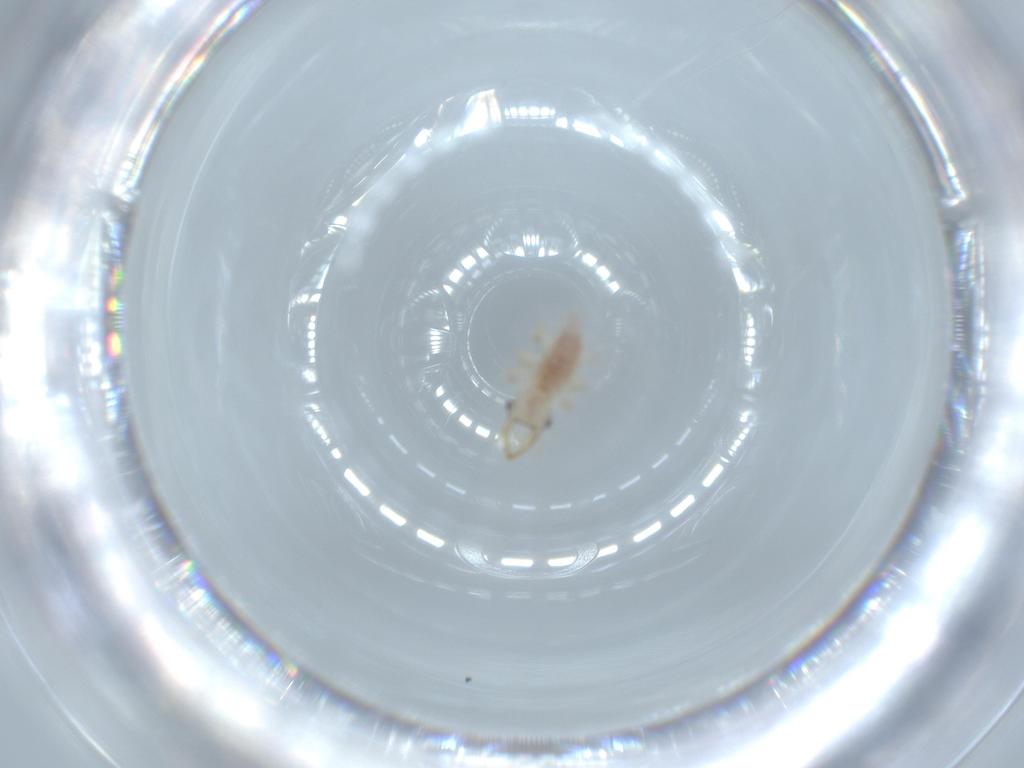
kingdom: Animalia
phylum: Arthropoda
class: Insecta
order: Neuroptera
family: Chrysopidae
